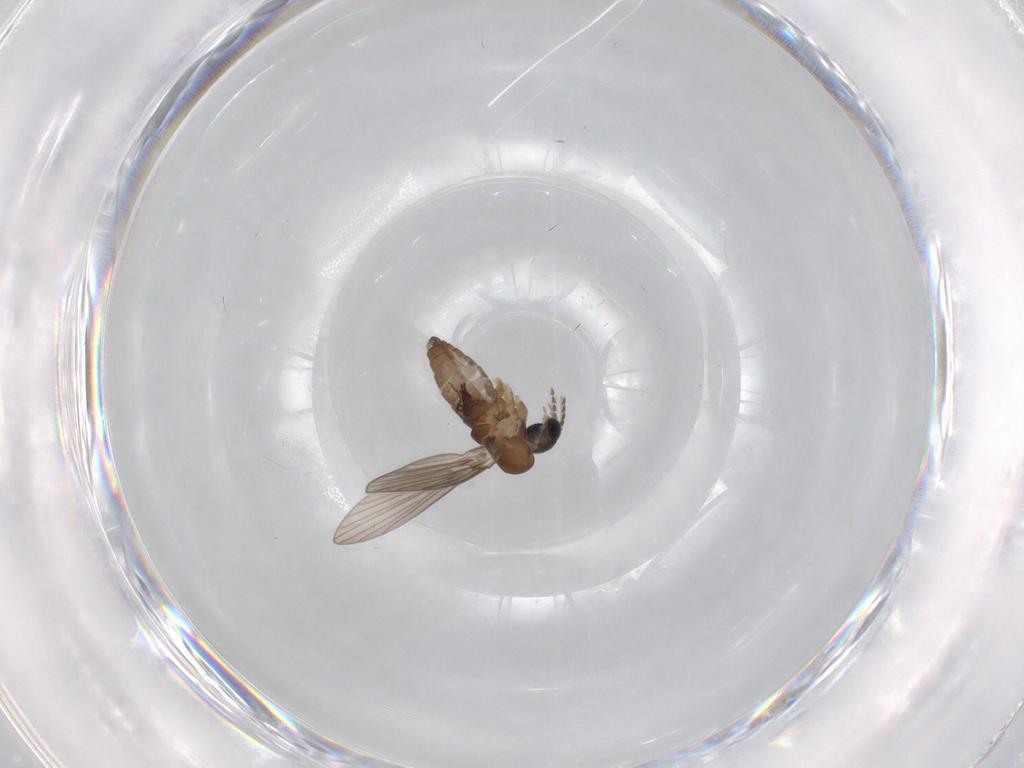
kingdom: Animalia
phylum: Arthropoda
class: Insecta
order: Diptera
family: Psychodidae
